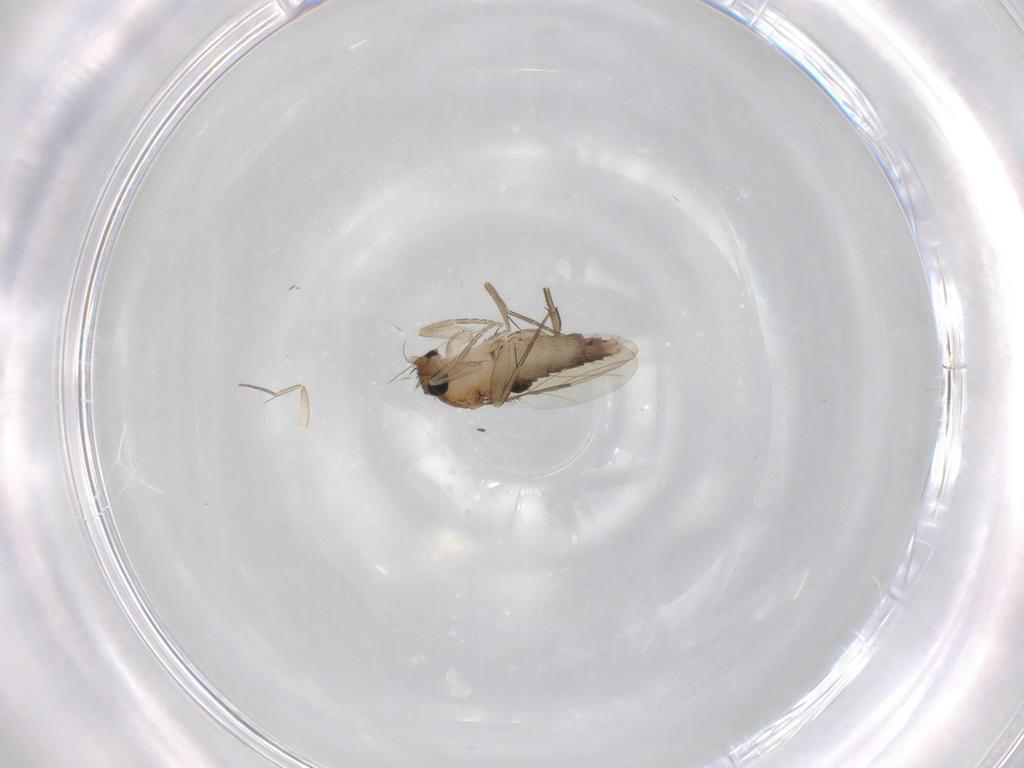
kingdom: Animalia
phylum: Arthropoda
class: Insecta
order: Diptera
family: Phoridae
